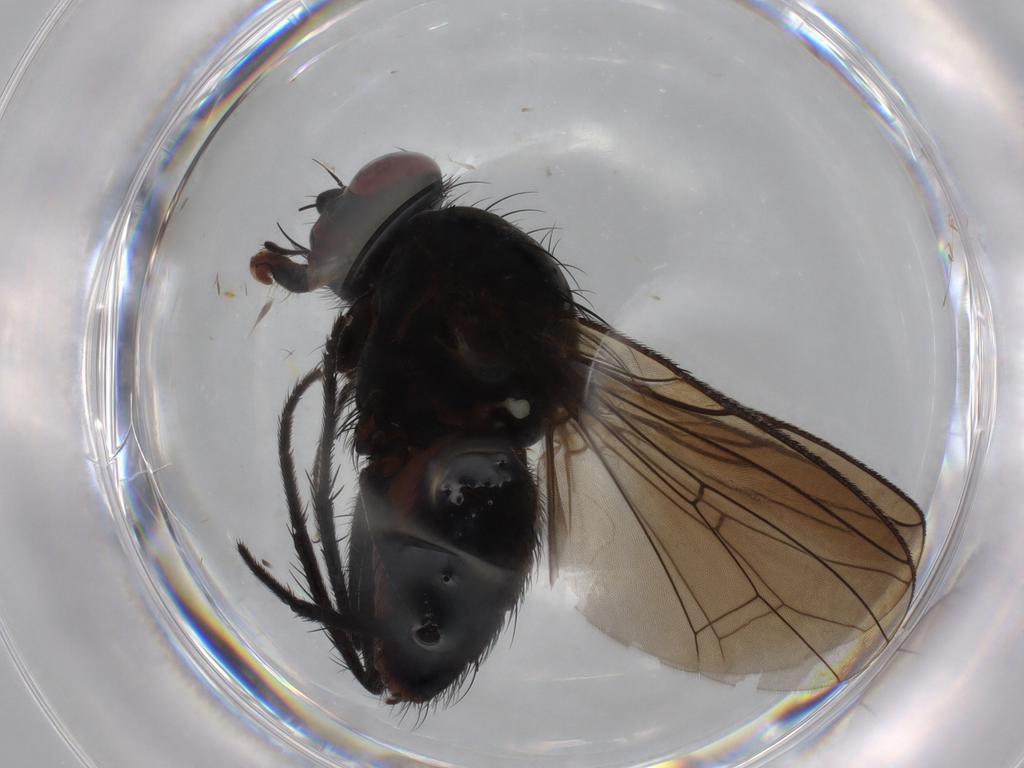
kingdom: Animalia
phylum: Arthropoda
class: Insecta
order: Diptera
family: Anthomyiidae
